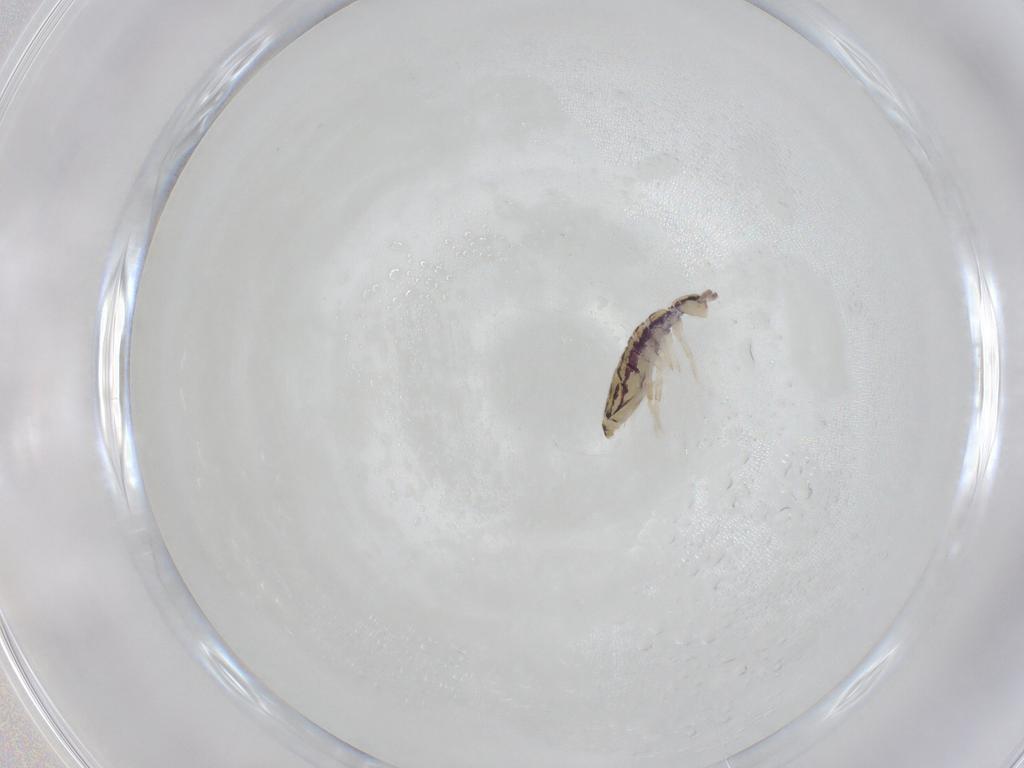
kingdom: Animalia
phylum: Arthropoda
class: Collembola
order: Entomobryomorpha
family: Entomobryidae
